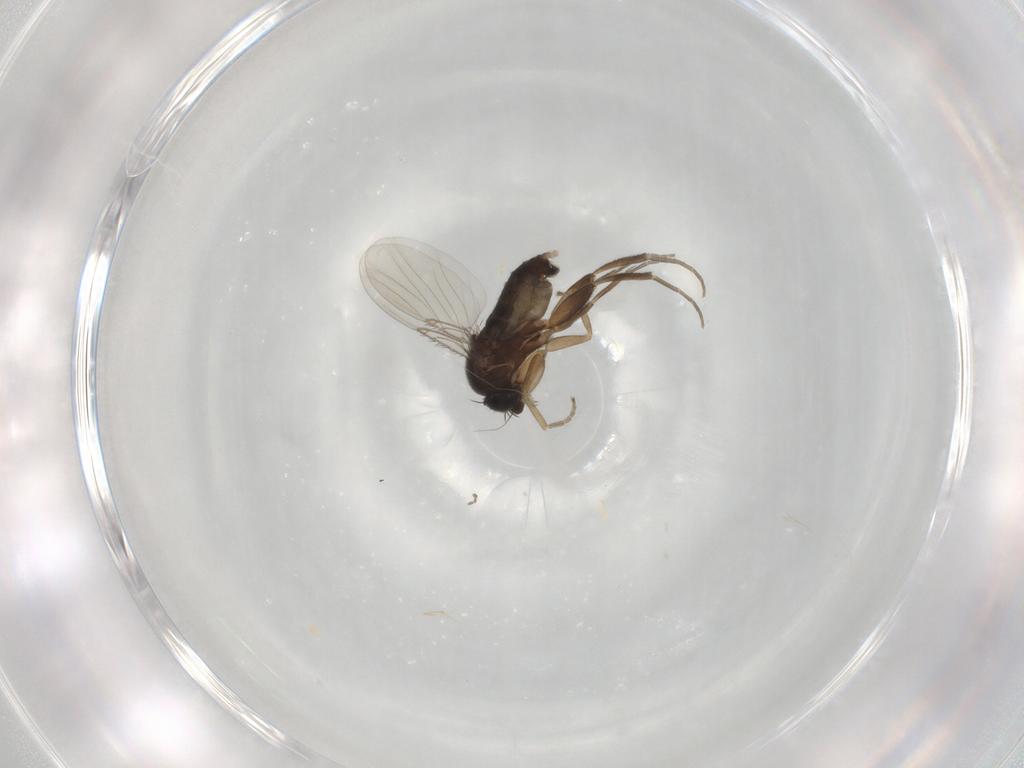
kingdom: Animalia
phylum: Arthropoda
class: Insecta
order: Diptera
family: Phoridae
